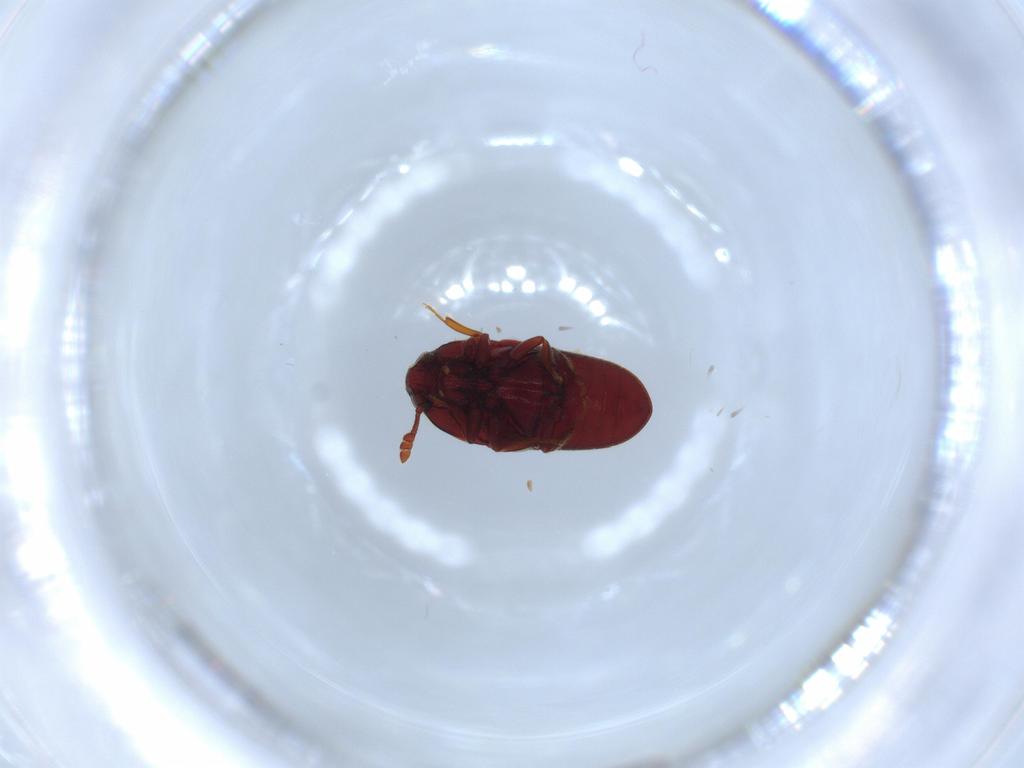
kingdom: Animalia
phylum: Arthropoda
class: Insecta
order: Coleoptera
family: Throscidae
